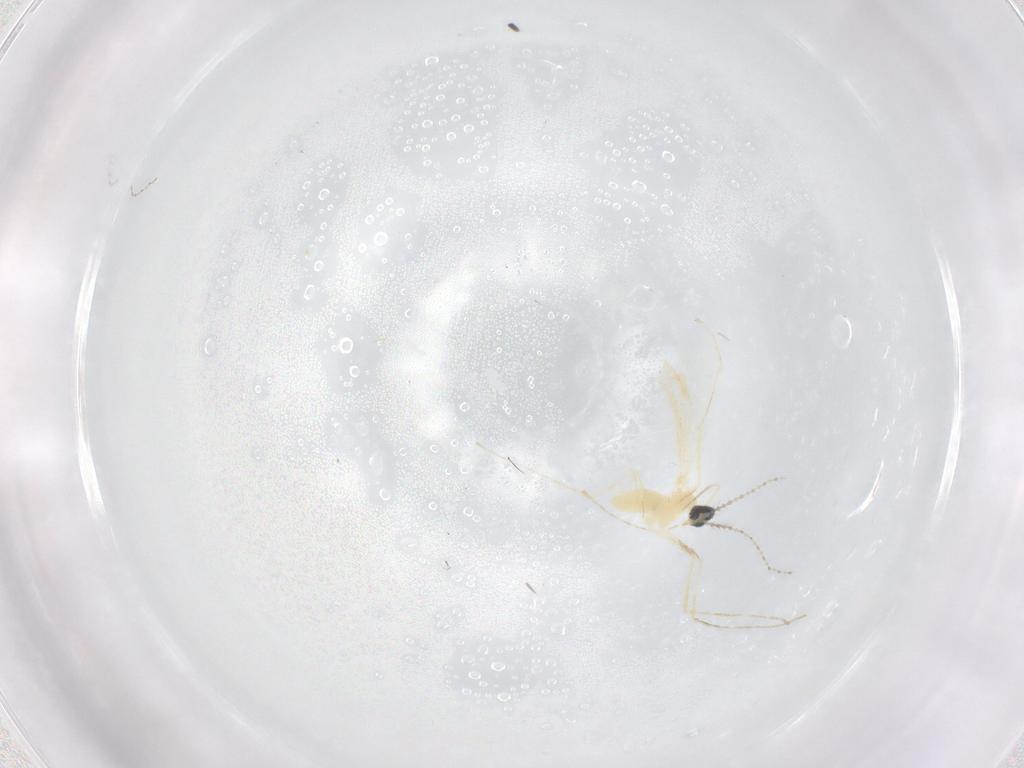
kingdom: Animalia
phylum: Arthropoda
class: Insecta
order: Diptera
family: Cecidomyiidae
